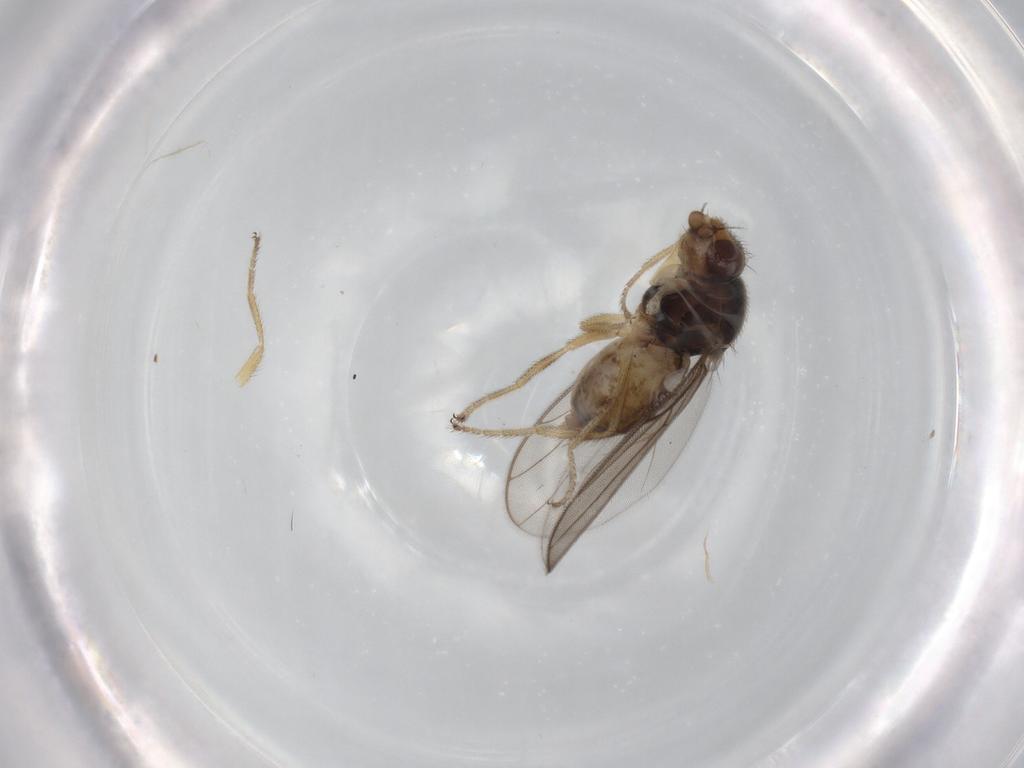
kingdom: Animalia
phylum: Arthropoda
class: Insecta
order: Diptera
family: Chloropidae
